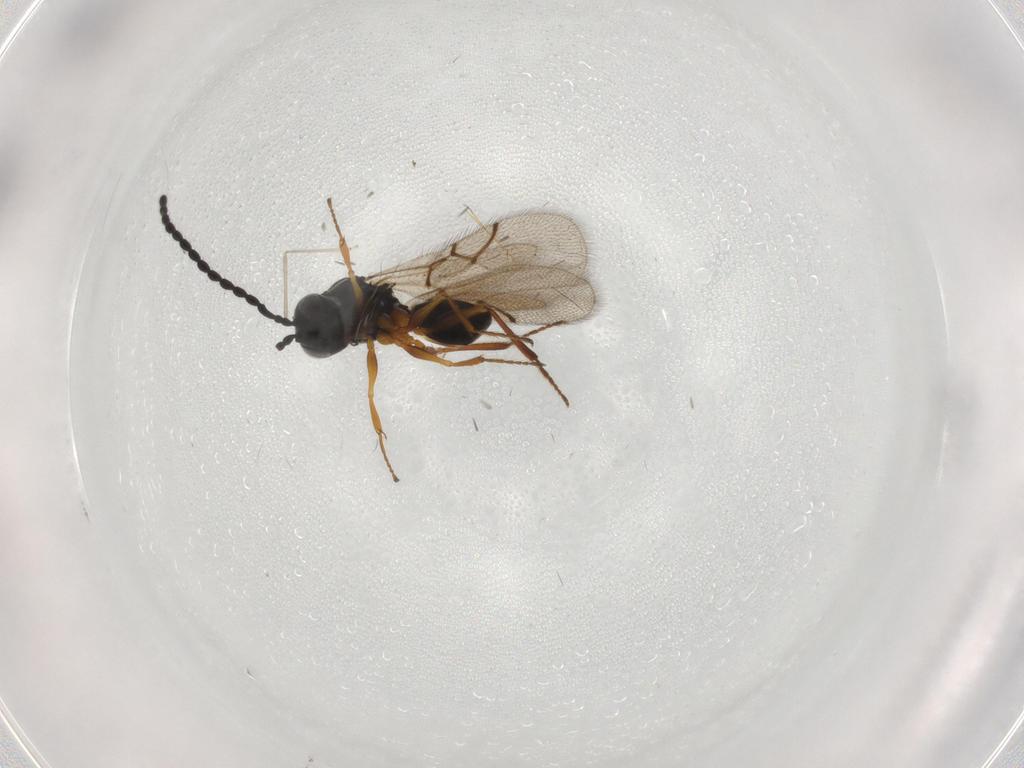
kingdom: Animalia
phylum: Arthropoda
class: Insecta
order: Hymenoptera
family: Figitidae
